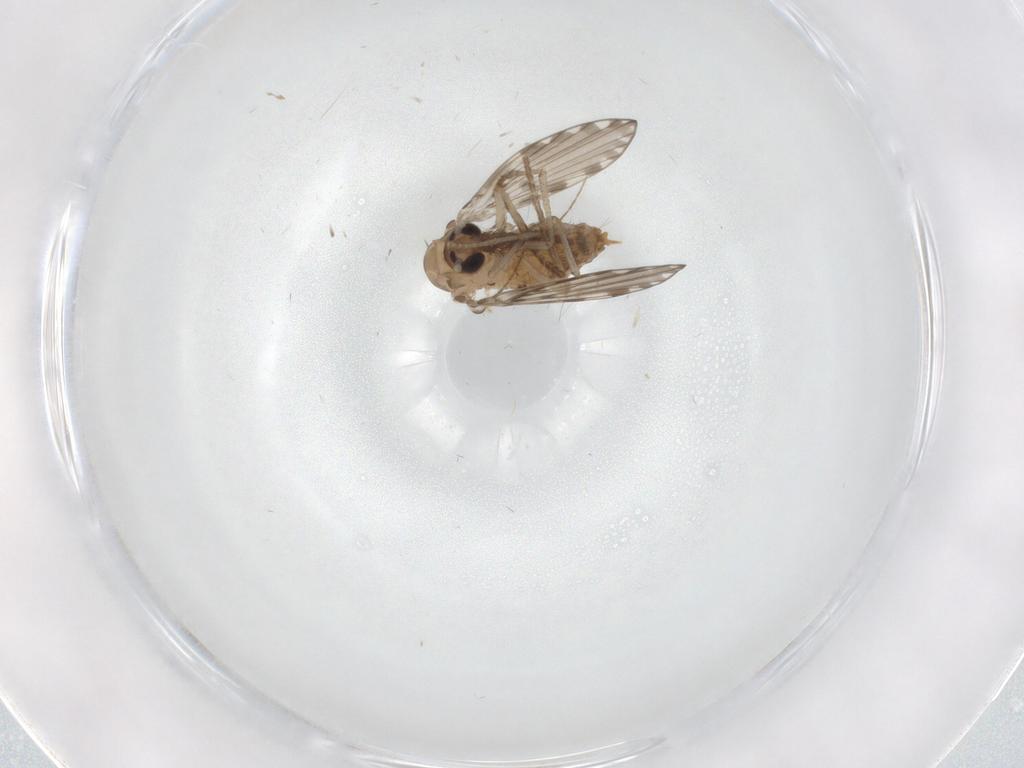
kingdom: Animalia
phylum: Arthropoda
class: Insecta
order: Diptera
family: Psychodidae
